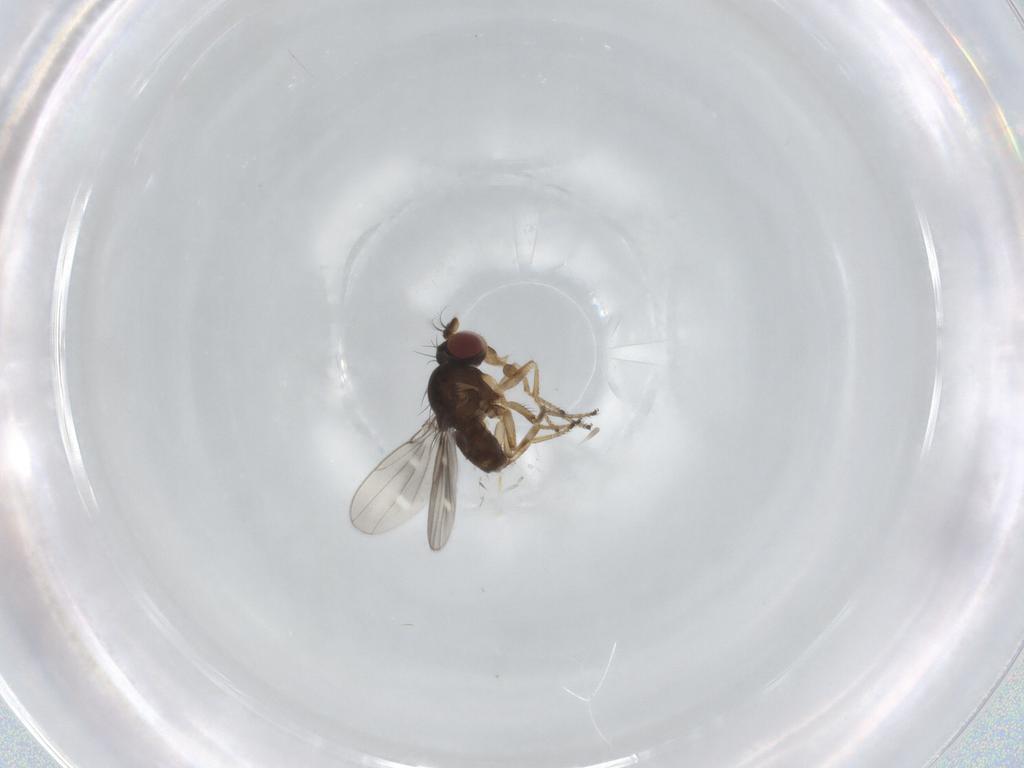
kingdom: Animalia
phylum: Arthropoda
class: Insecta
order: Diptera
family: Ephydridae
